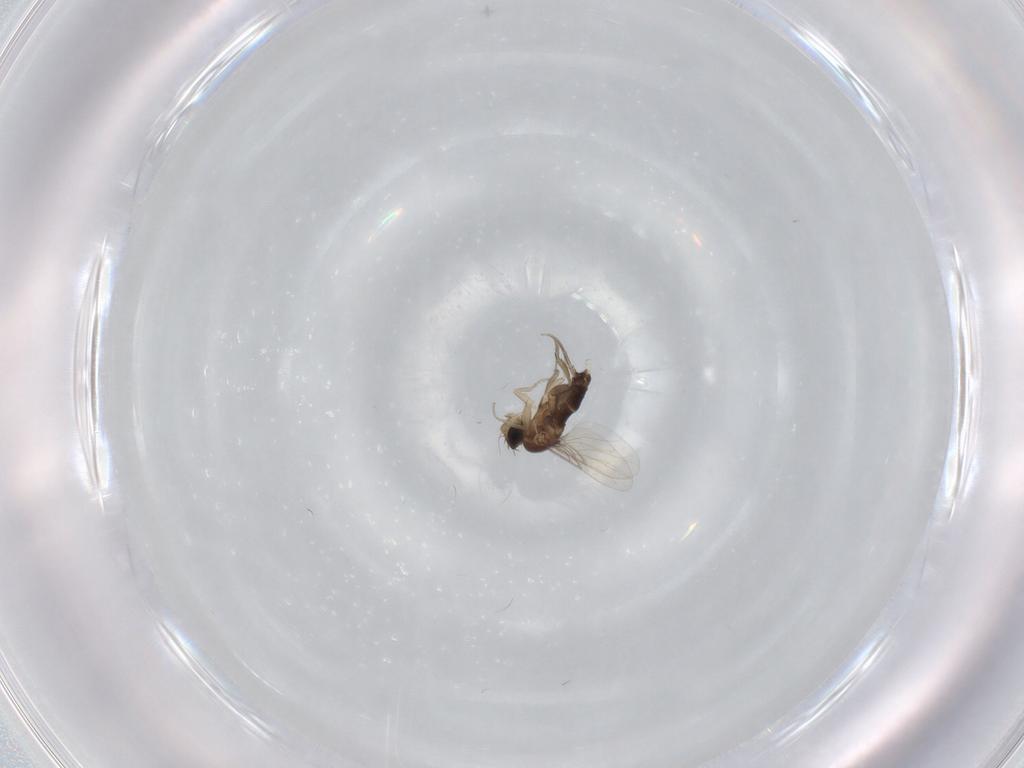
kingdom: Animalia
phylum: Arthropoda
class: Insecta
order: Diptera
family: Phoridae
